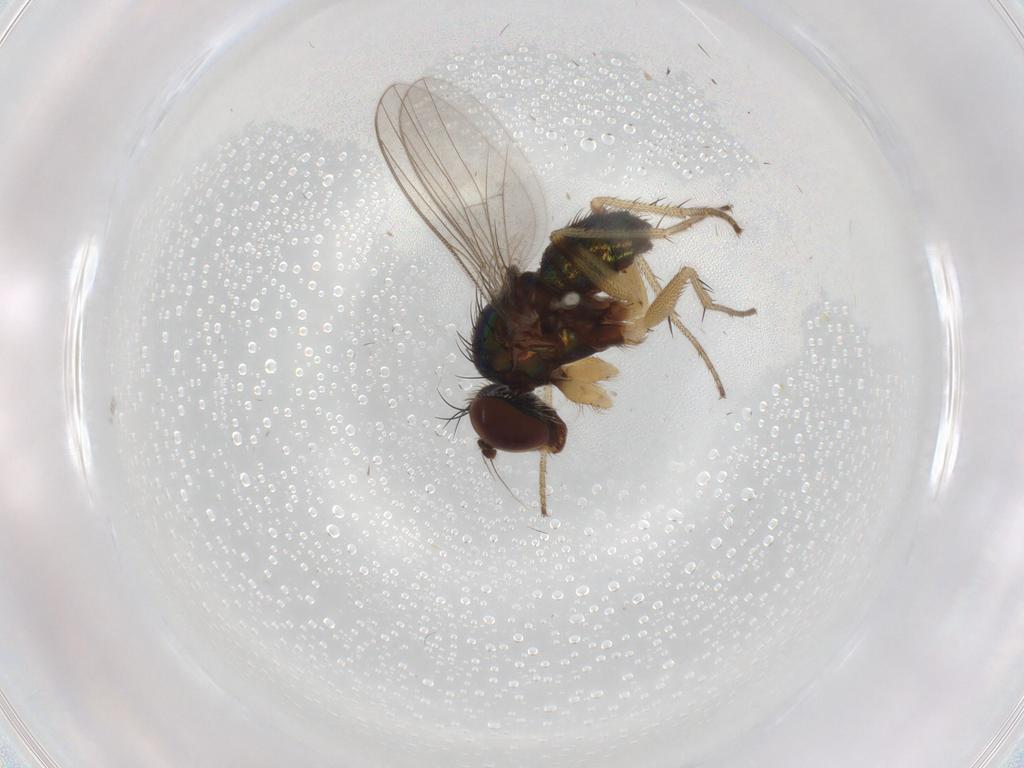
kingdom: Animalia
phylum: Arthropoda
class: Insecta
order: Diptera
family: Dolichopodidae
